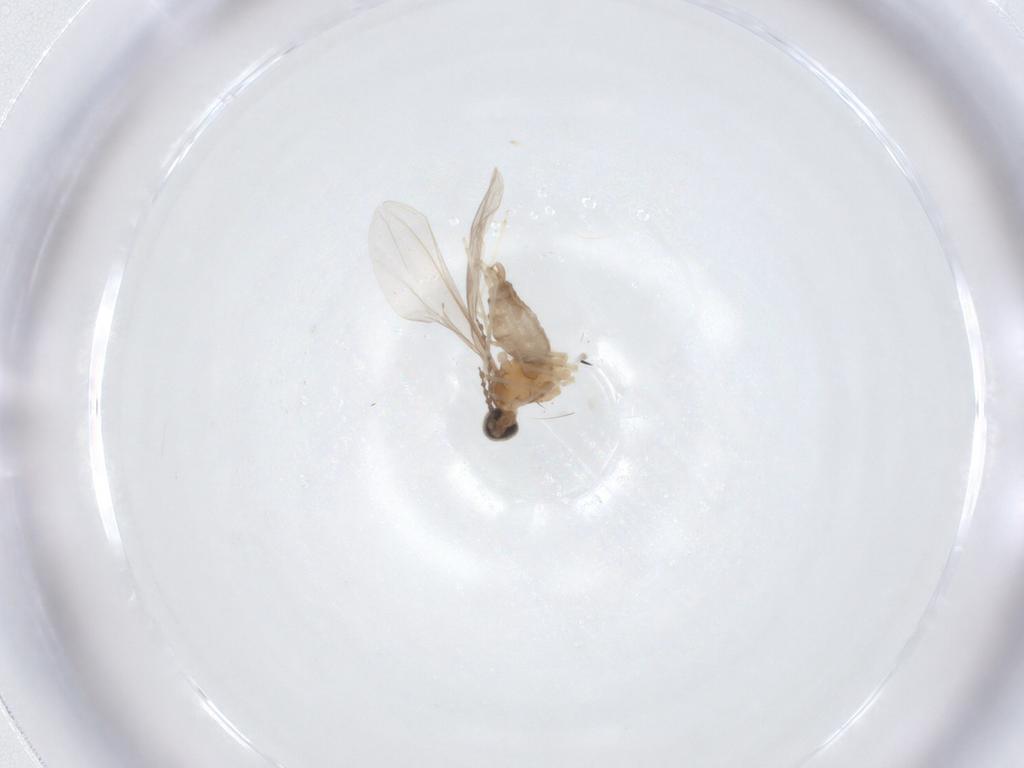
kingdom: Animalia
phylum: Arthropoda
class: Insecta
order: Diptera
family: Cecidomyiidae
